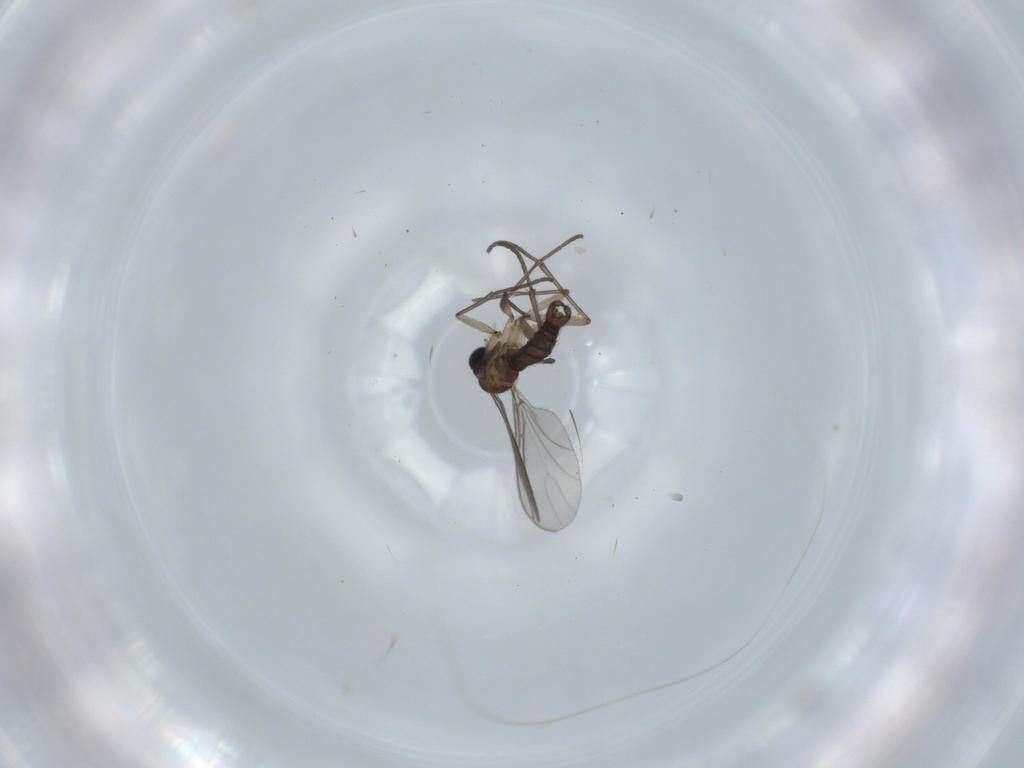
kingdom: Animalia
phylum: Arthropoda
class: Insecta
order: Diptera
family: Sciaridae
